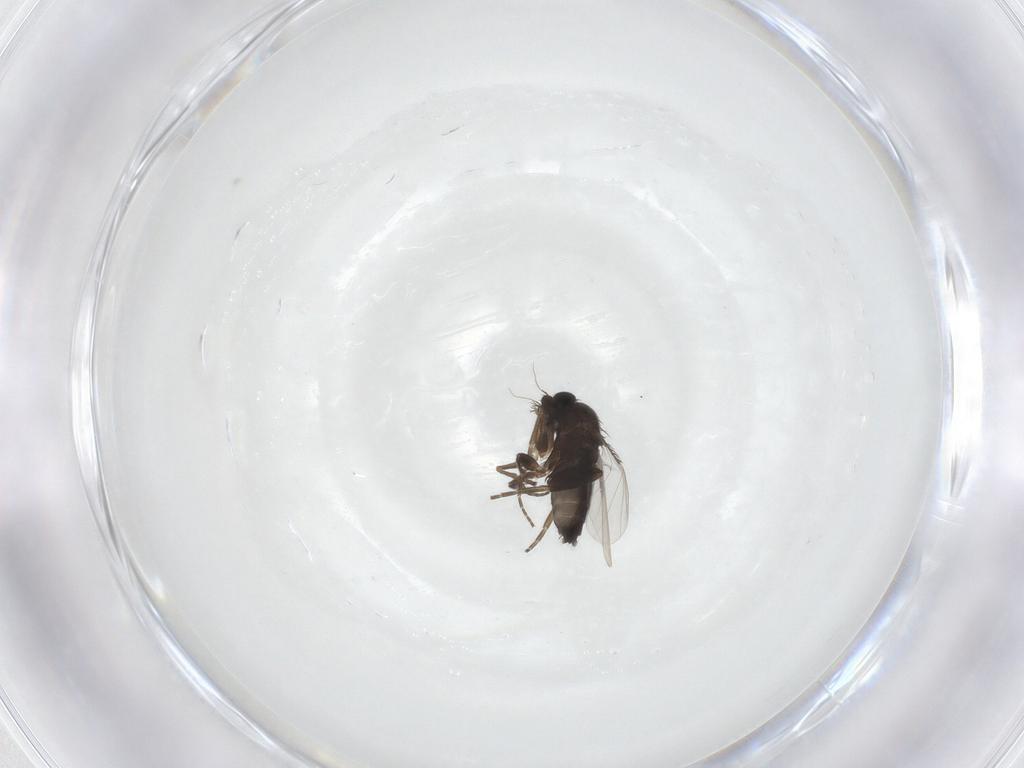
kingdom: Animalia
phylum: Arthropoda
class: Insecta
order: Diptera
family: Phoridae
